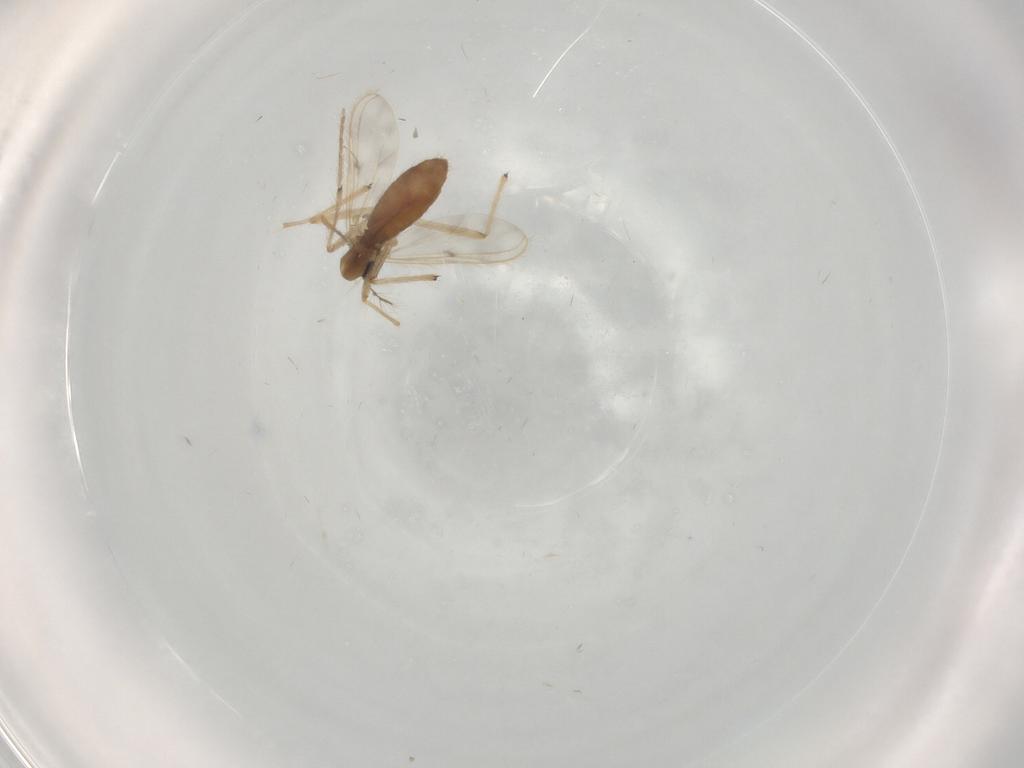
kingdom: Animalia
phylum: Arthropoda
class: Insecta
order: Diptera
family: Chironomidae
